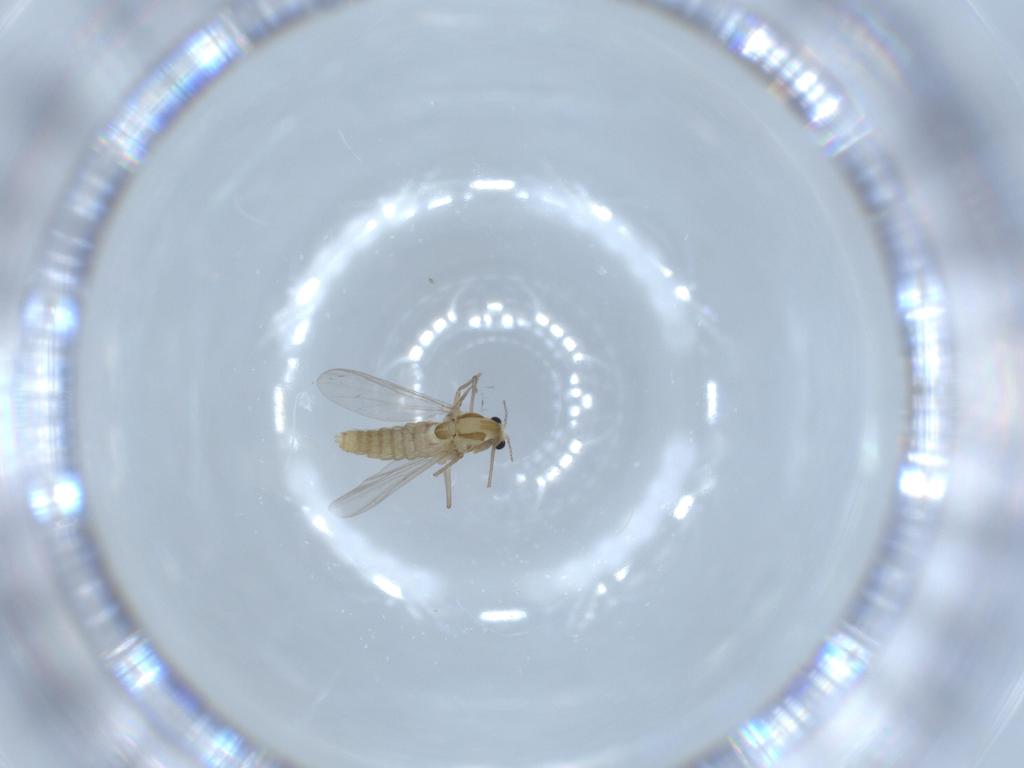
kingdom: Animalia
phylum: Arthropoda
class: Insecta
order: Diptera
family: Chironomidae
